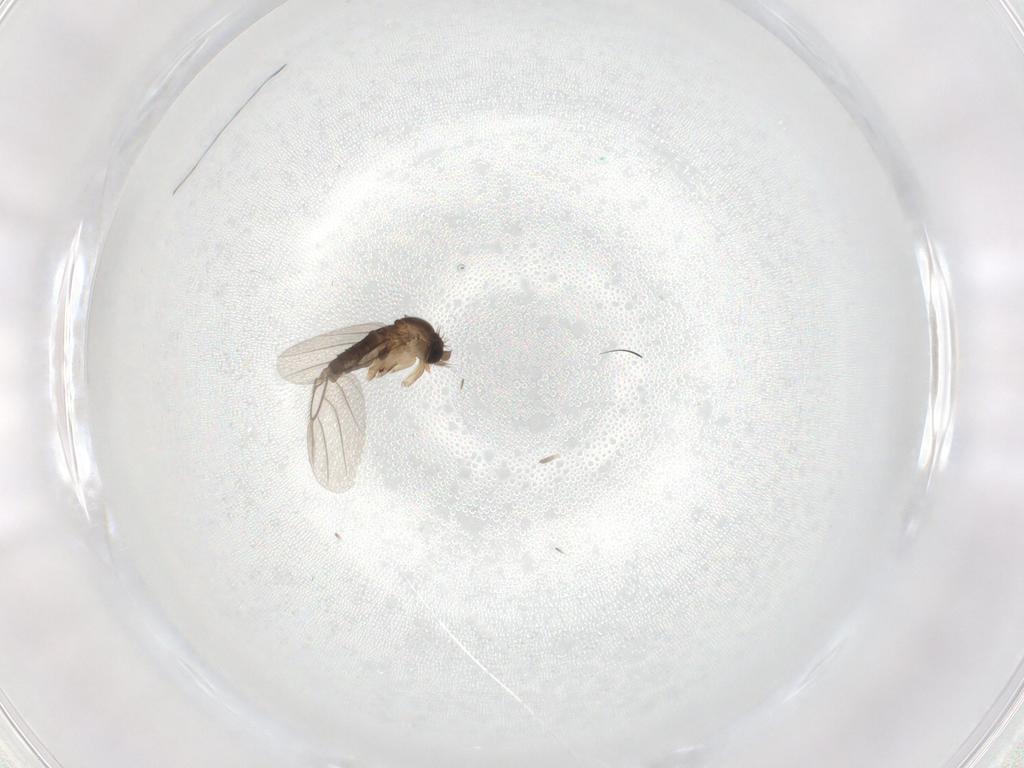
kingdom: Animalia
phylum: Arthropoda
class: Insecta
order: Diptera
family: Phoridae
